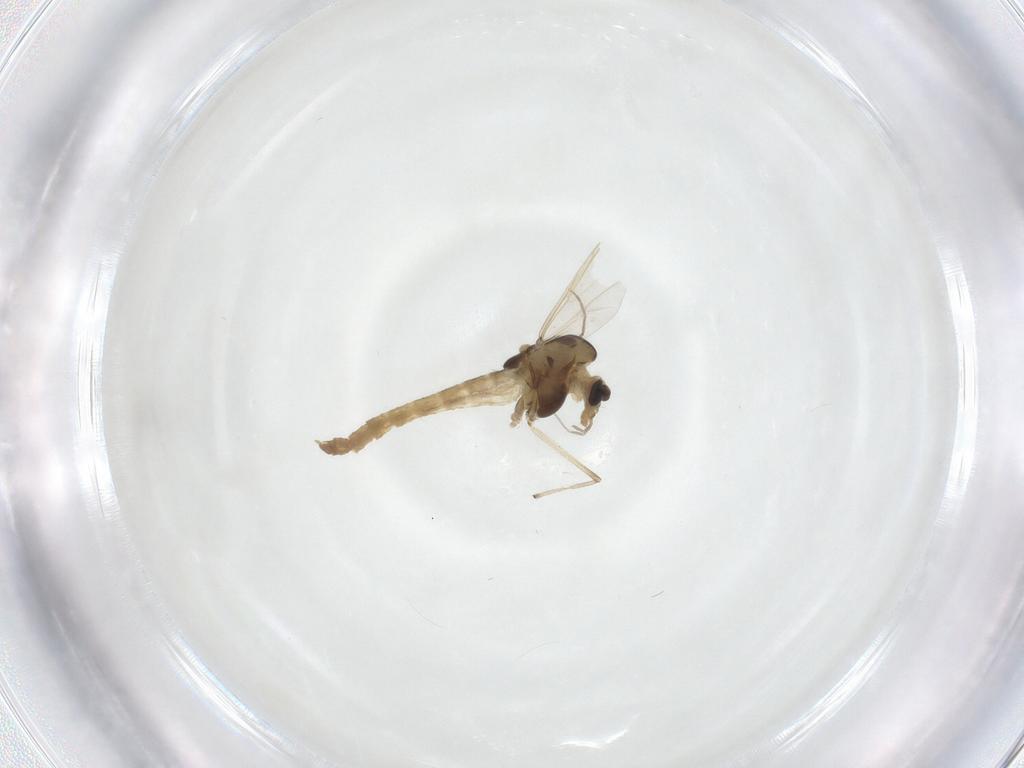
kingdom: Animalia
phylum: Arthropoda
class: Insecta
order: Diptera
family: Chironomidae
